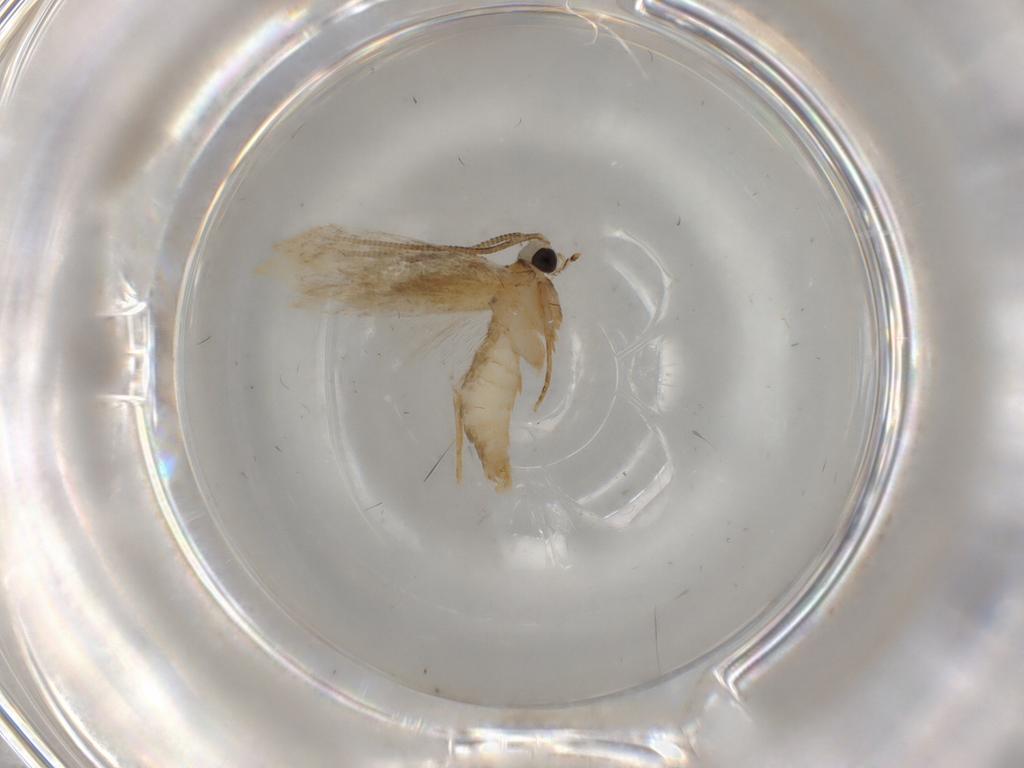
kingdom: Animalia
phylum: Arthropoda
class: Insecta
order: Lepidoptera
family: Tineidae
